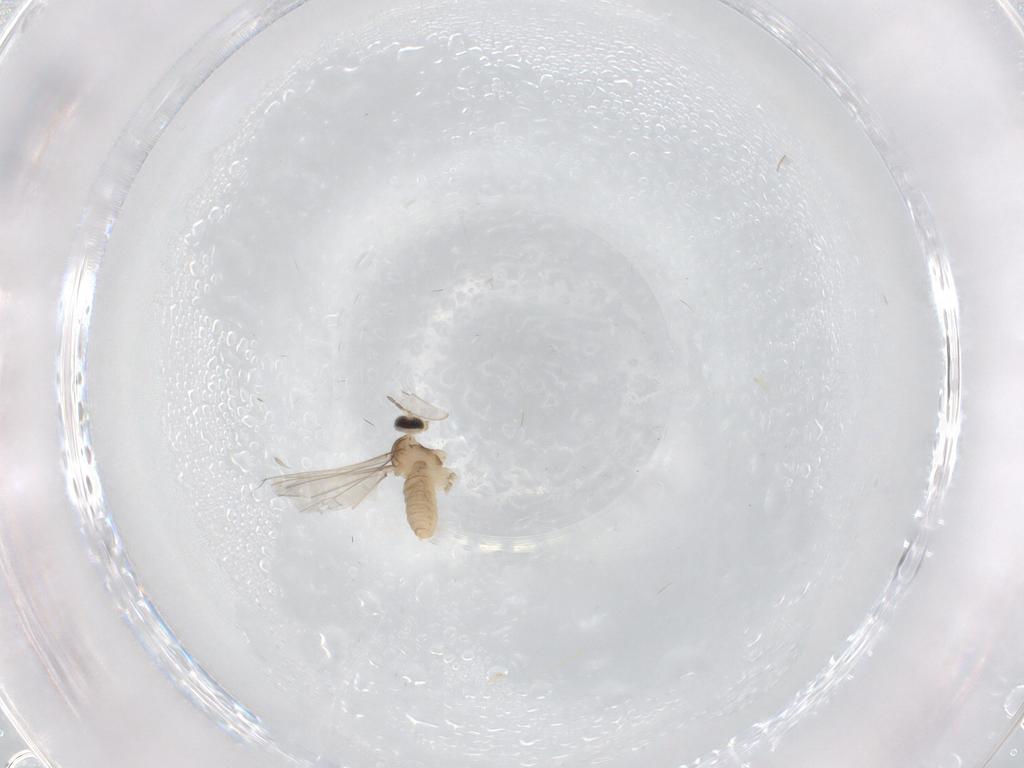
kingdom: Animalia
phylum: Arthropoda
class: Insecta
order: Diptera
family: Cecidomyiidae
